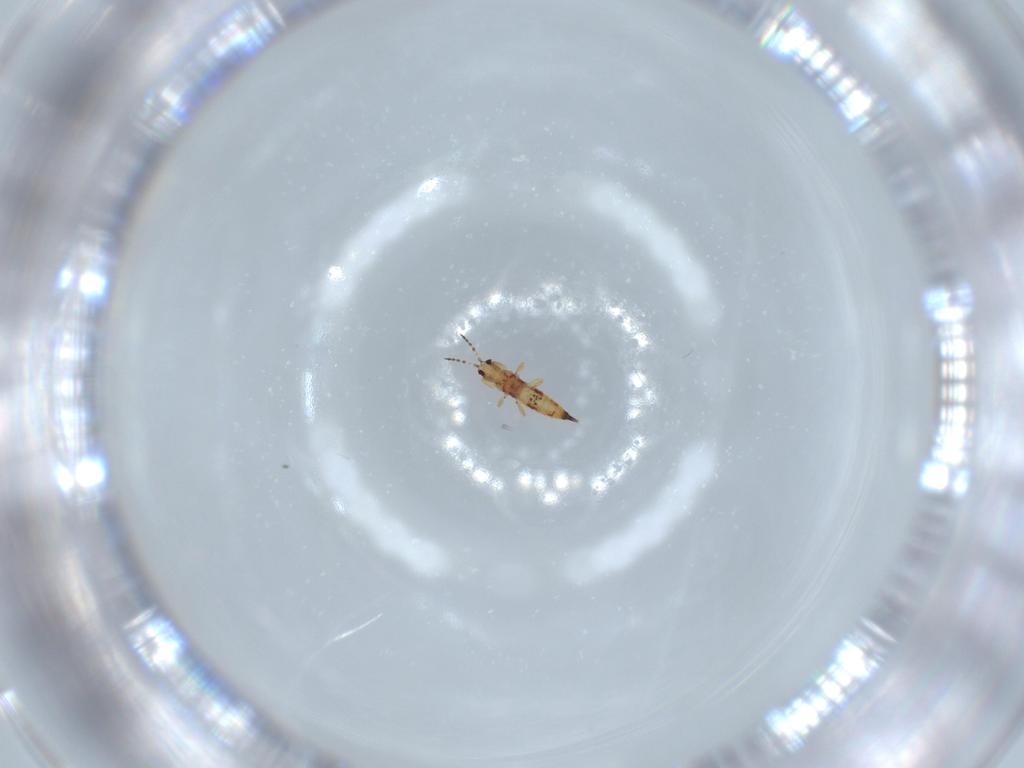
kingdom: Animalia
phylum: Arthropoda
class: Insecta
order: Thysanoptera
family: Phlaeothripidae
